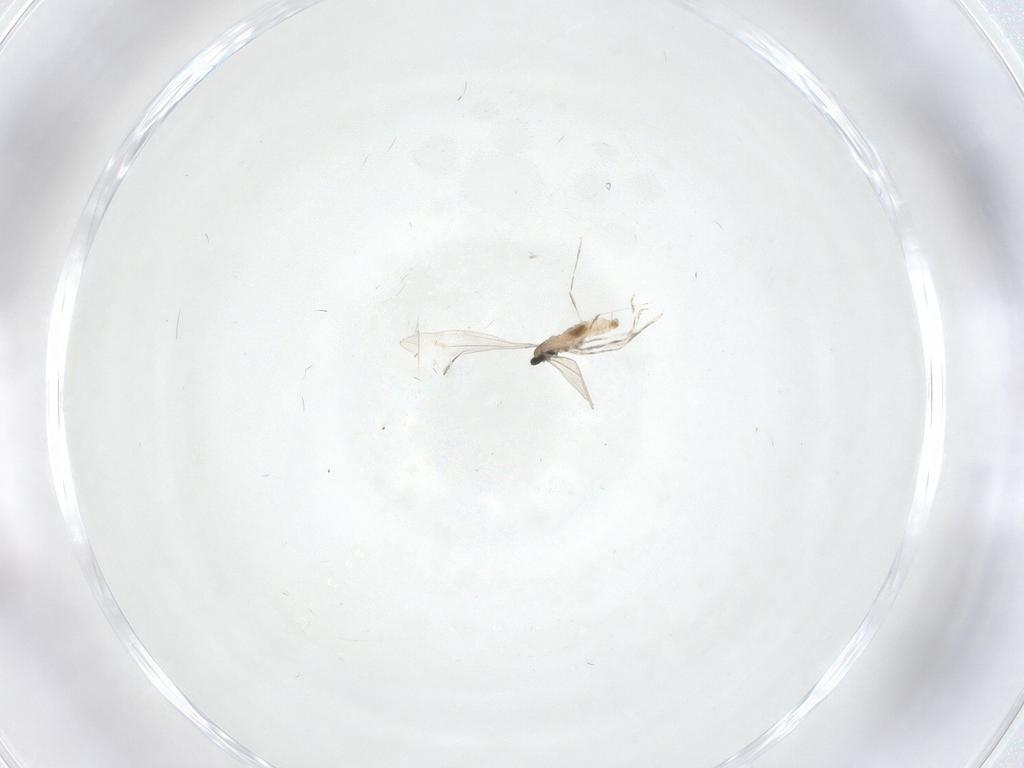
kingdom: Animalia
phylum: Arthropoda
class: Insecta
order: Diptera
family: Cecidomyiidae
